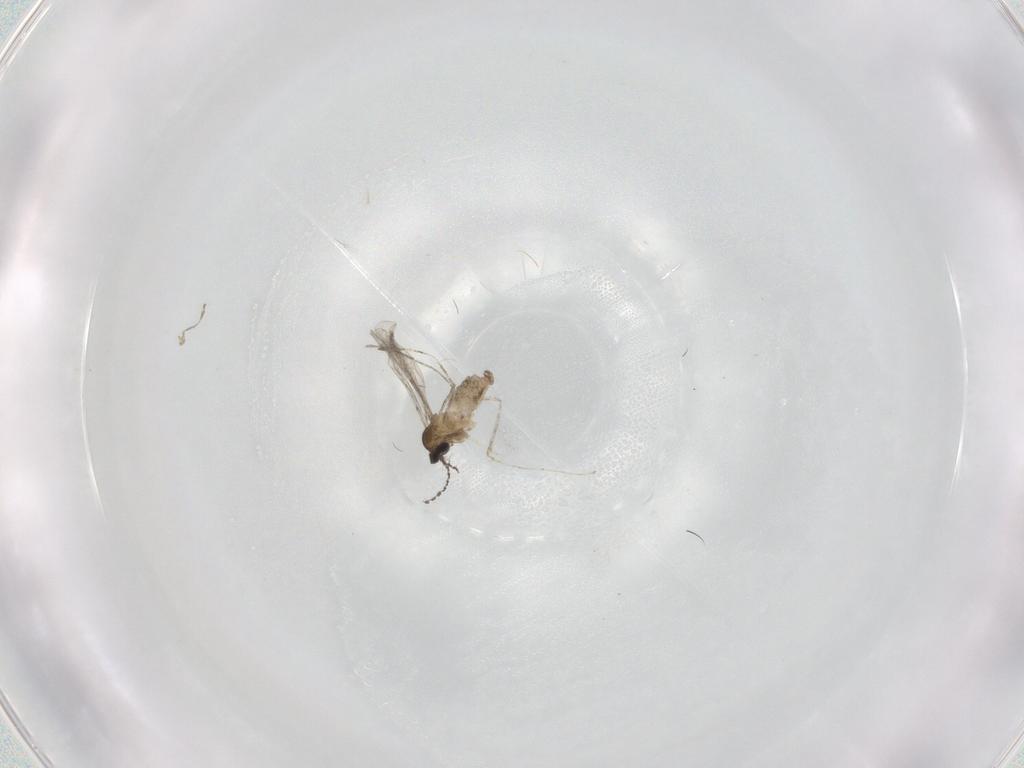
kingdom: Animalia
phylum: Arthropoda
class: Insecta
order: Diptera
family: Cecidomyiidae
